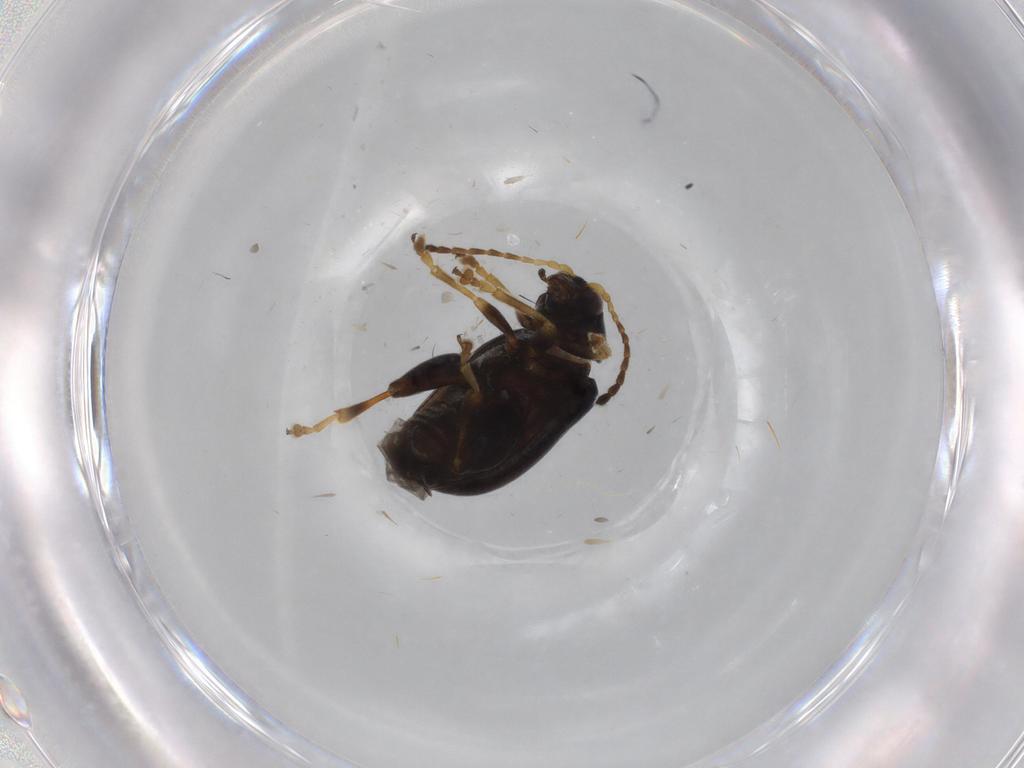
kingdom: Animalia
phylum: Arthropoda
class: Insecta
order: Coleoptera
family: Chrysomelidae
